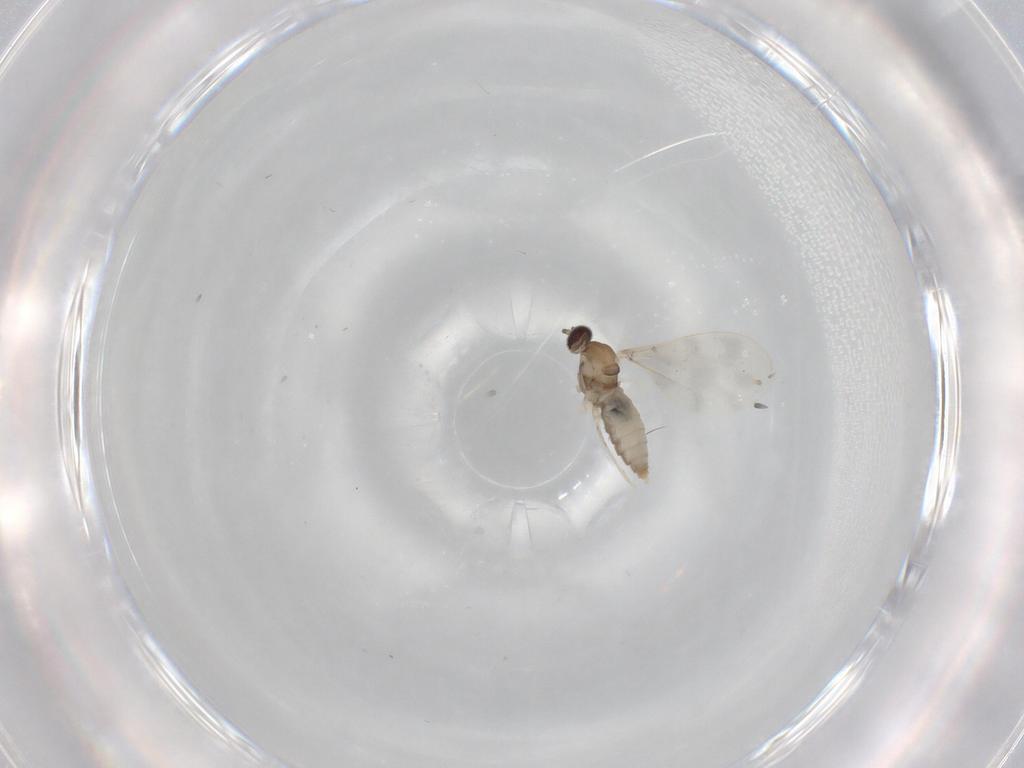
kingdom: Animalia
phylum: Arthropoda
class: Insecta
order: Diptera
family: Cecidomyiidae
